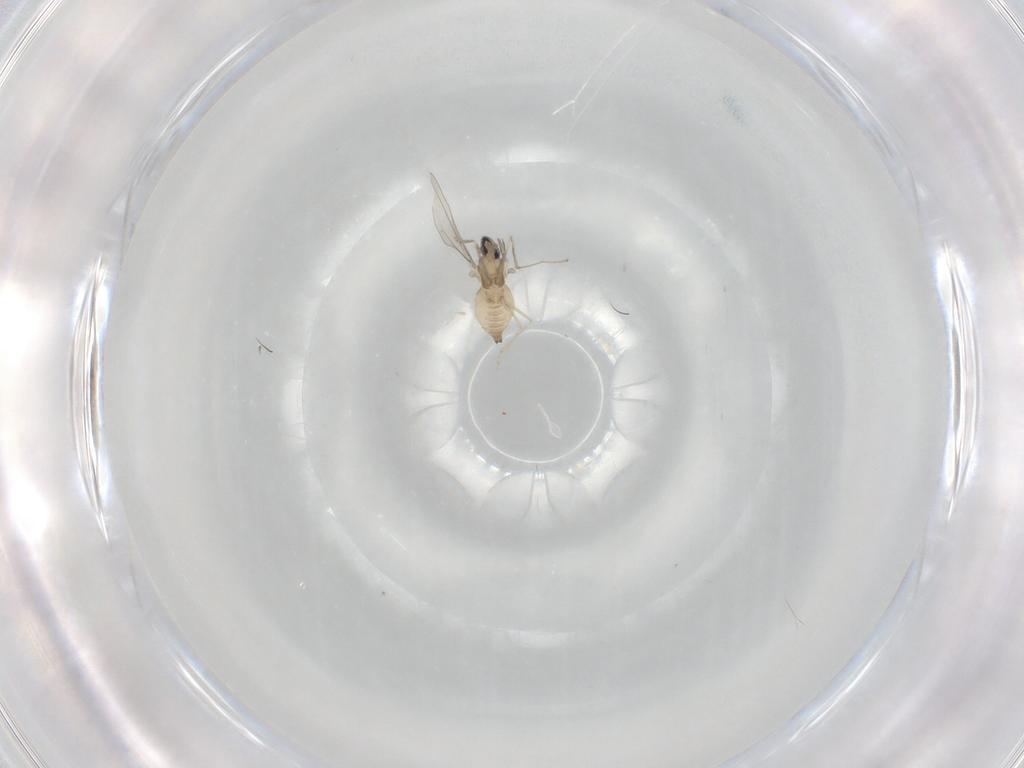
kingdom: Animalia
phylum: Arthropoda
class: Insecta
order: Diptera
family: Cecidomyiidae
